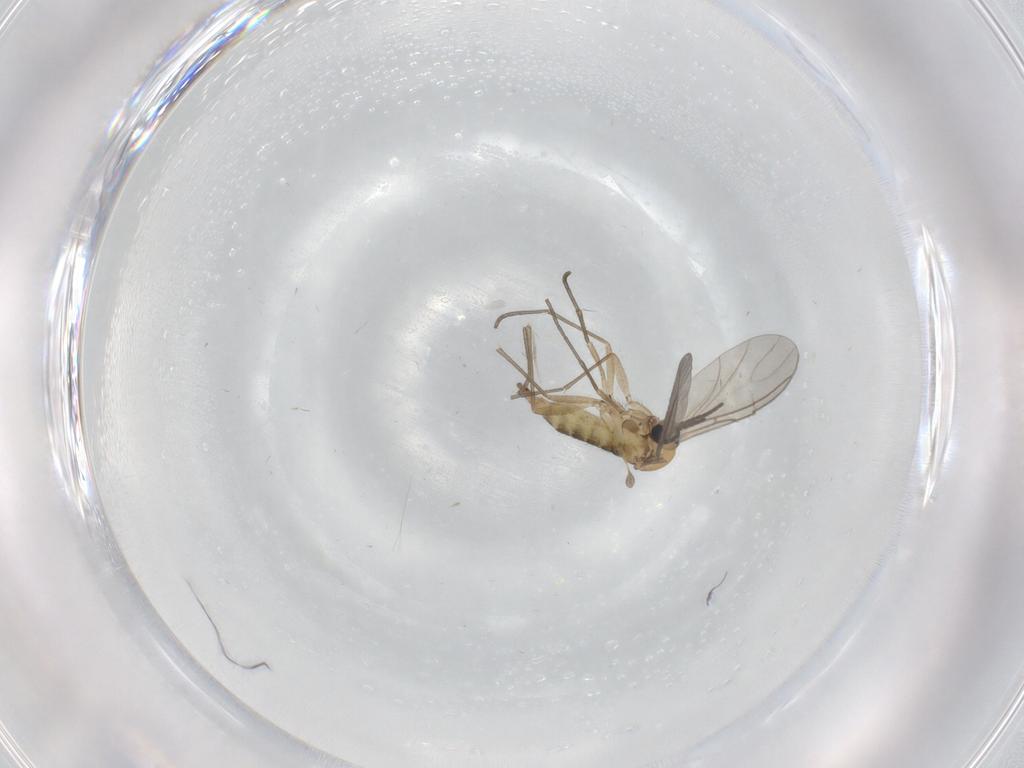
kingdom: Animalia
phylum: Arthropoda
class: Insecta
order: Diptera
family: Sciaridae
